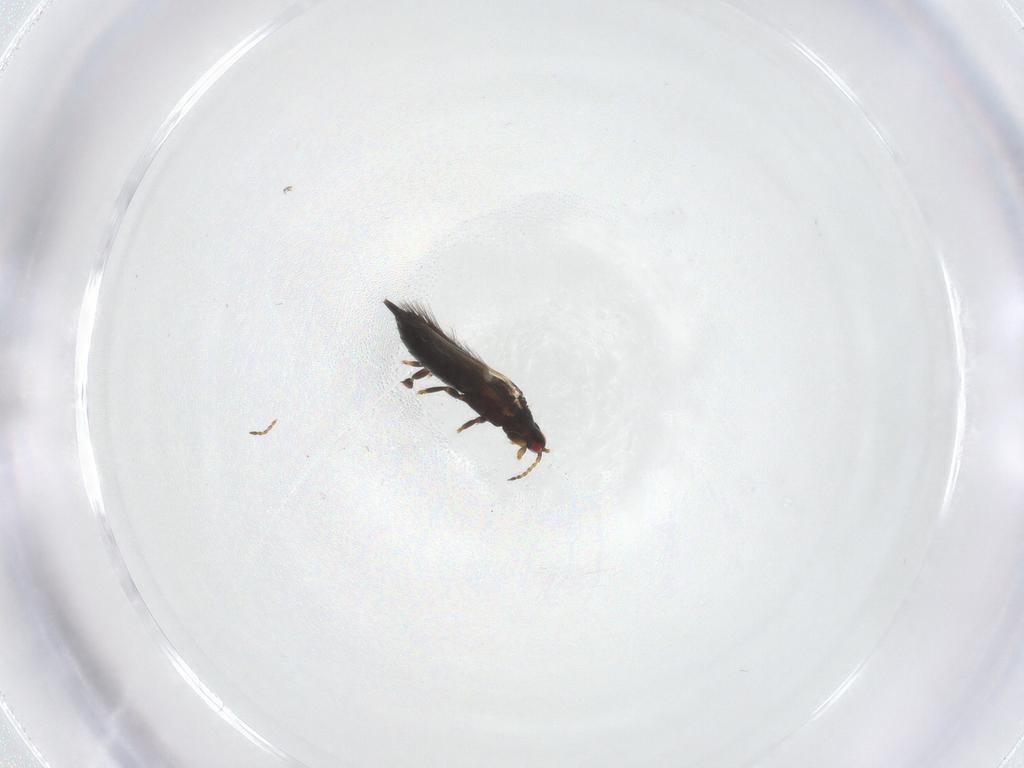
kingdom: Animalia
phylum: Arthropoda
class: Insecta
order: Thysanoptera
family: Phlaeothripidae
